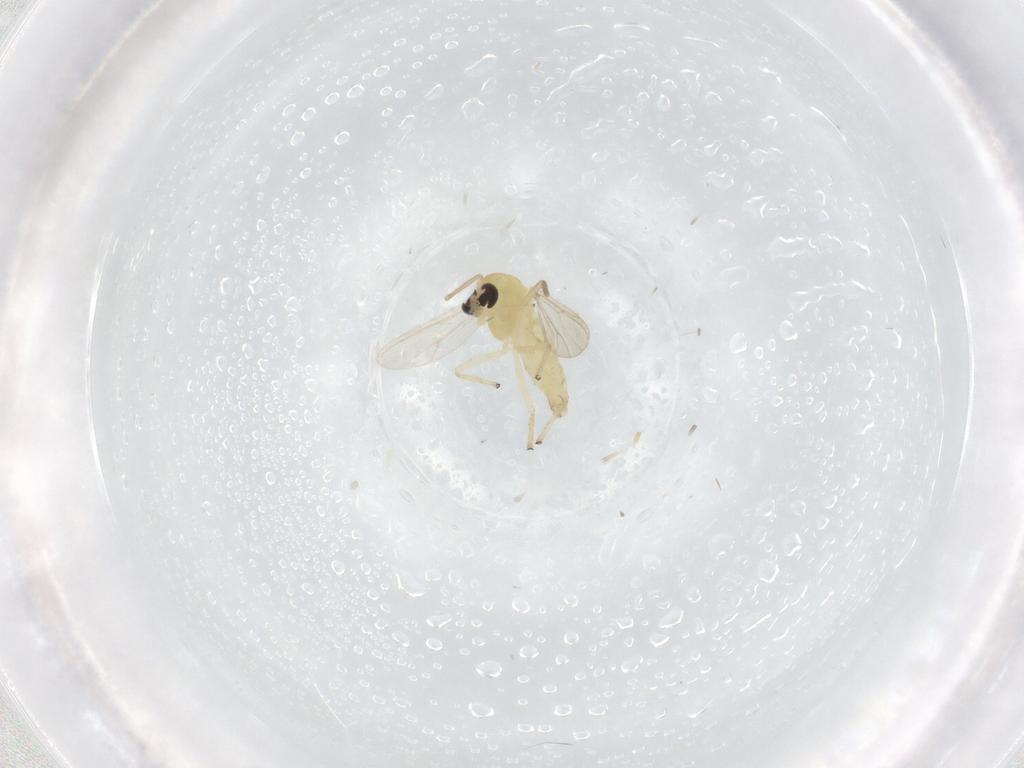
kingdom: Animalia
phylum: Arthropoda
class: Insecta
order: Diptera
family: Chironomidae
